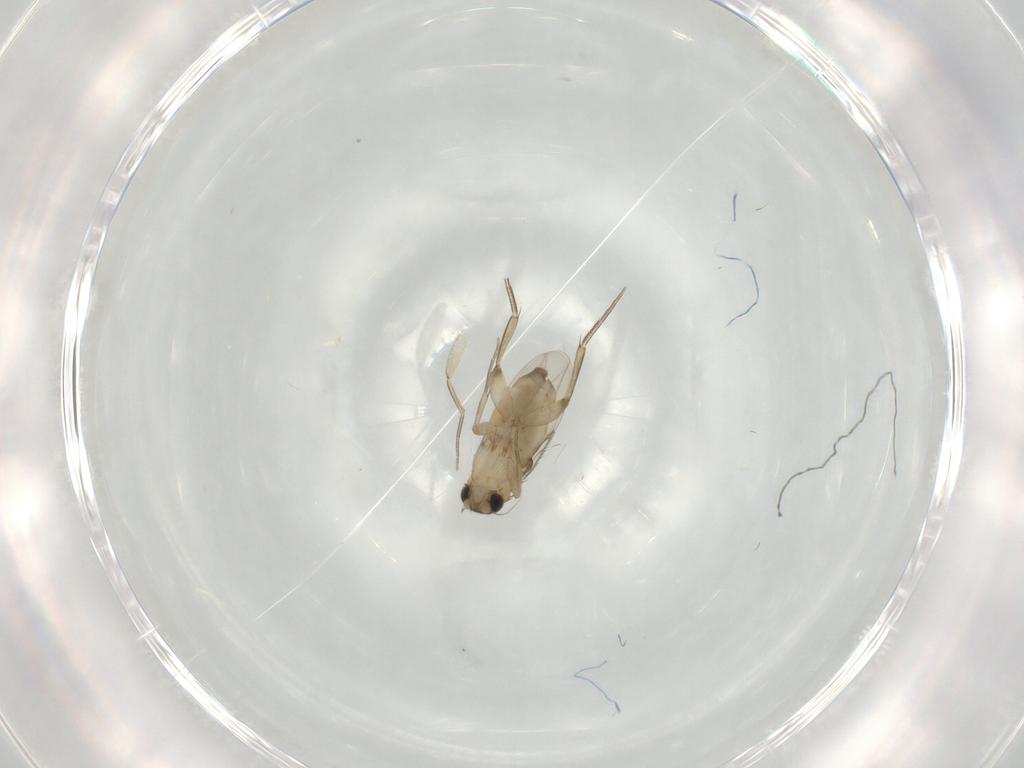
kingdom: Animalia
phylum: Arthropoda
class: Insecta
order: Diptera
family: Phoridae
